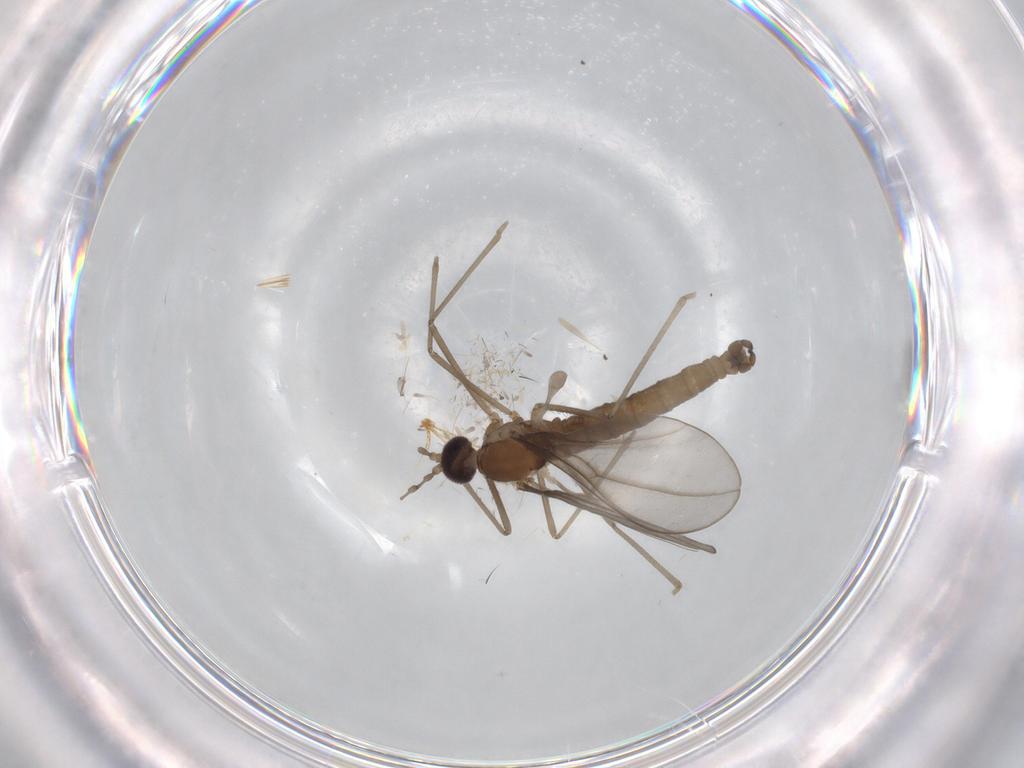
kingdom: Animalia
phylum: Arthropoda
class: Insecta
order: Diptera
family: Cecidomyiidae
